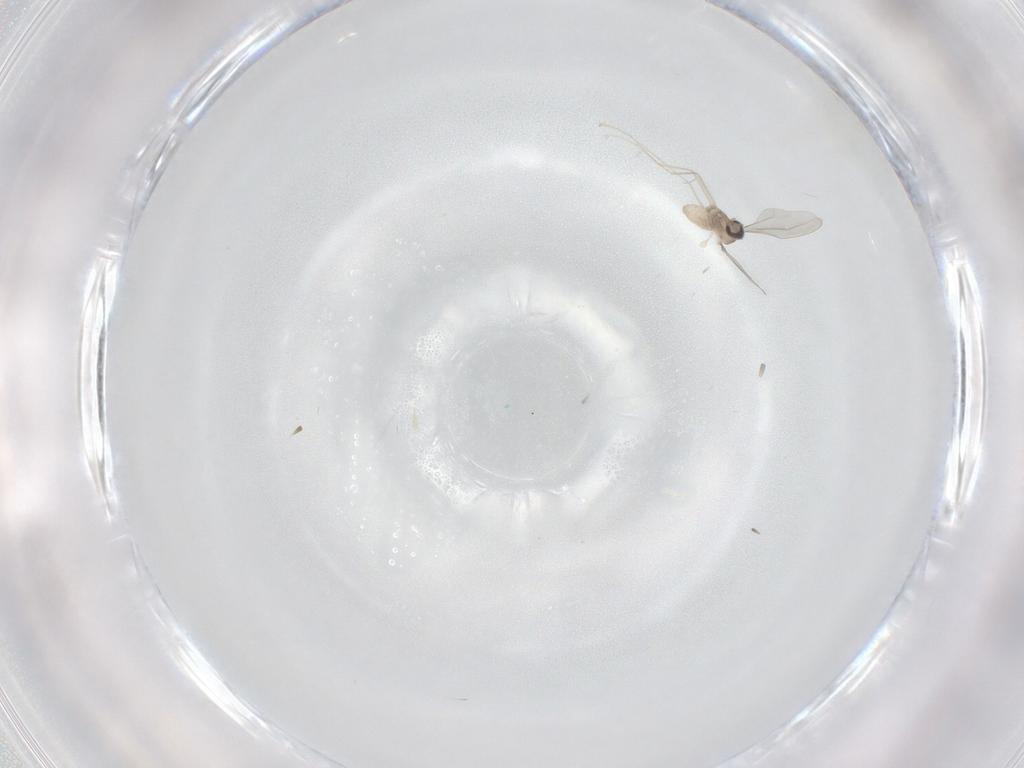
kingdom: Animalia
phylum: Arthropoda
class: Insecta
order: Diptera
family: Cecidomyiidae
